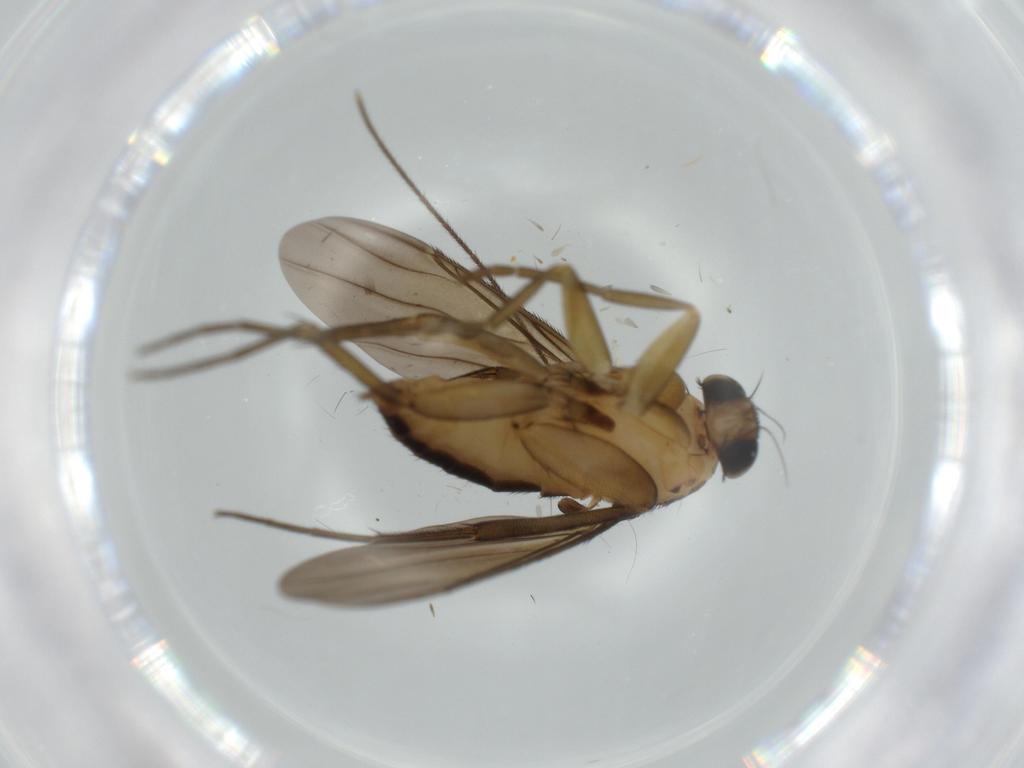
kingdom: Animalia
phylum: Arthropoda
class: Insecta
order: Diptera
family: Phoridae
